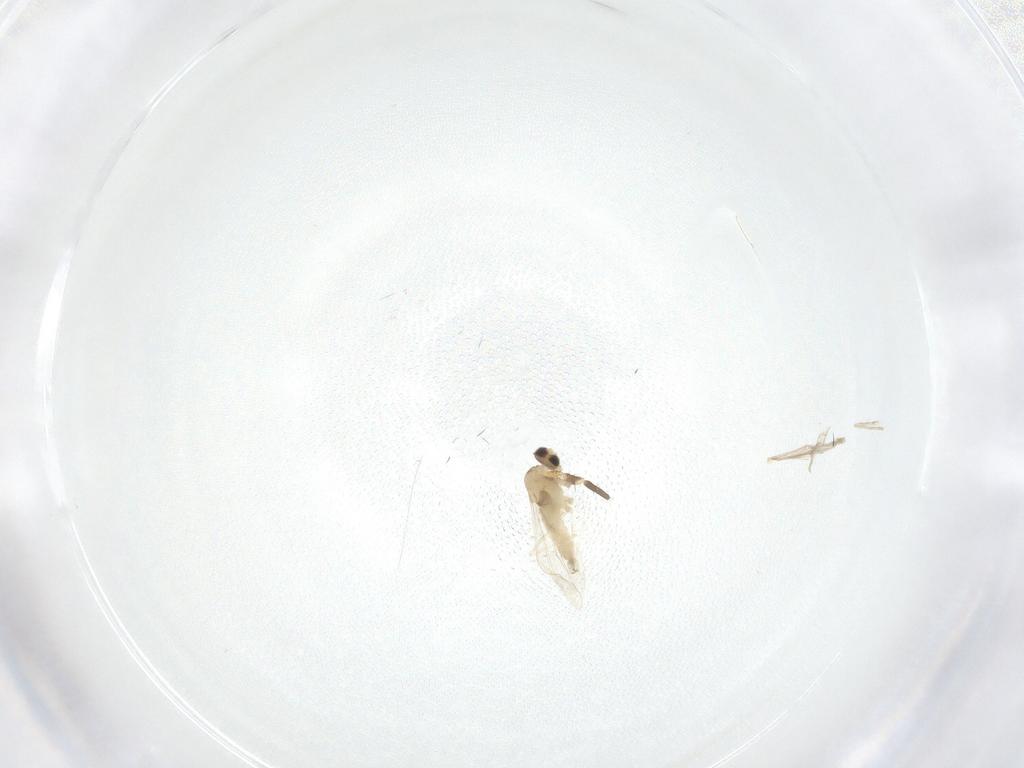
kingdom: Animalia
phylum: Arthropoda
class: Insecta
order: Diptera
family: Cecidomyiidae
